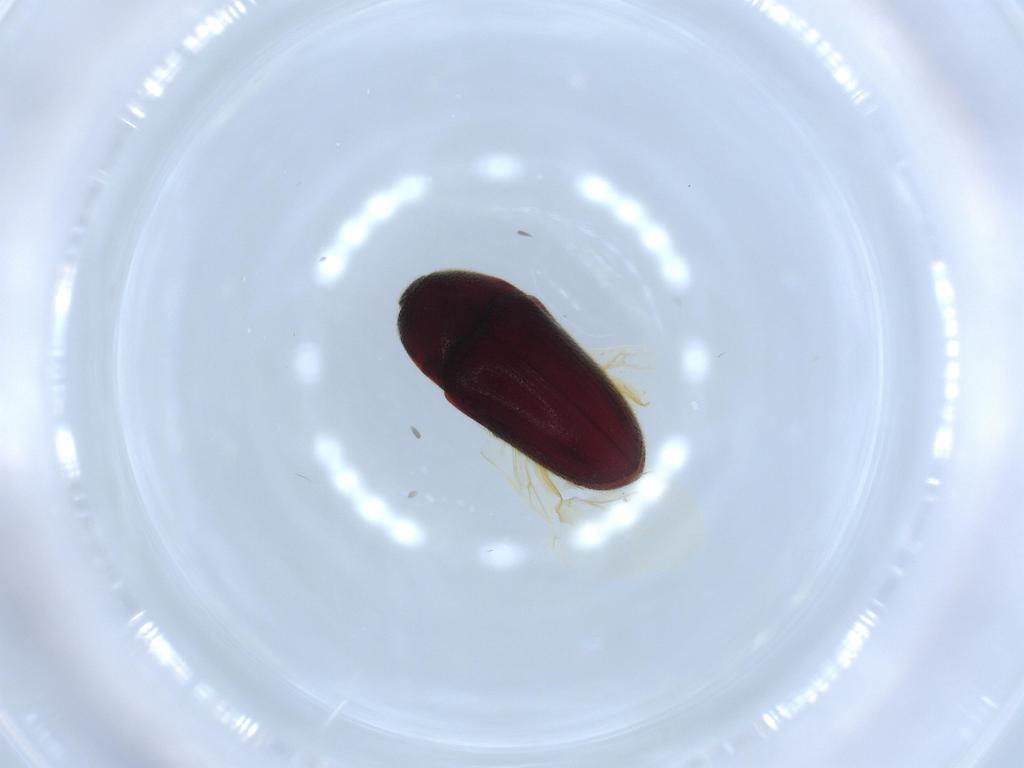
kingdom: Animalia
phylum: Arthropoda
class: Insecta
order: Coleoptera
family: Throscidae
